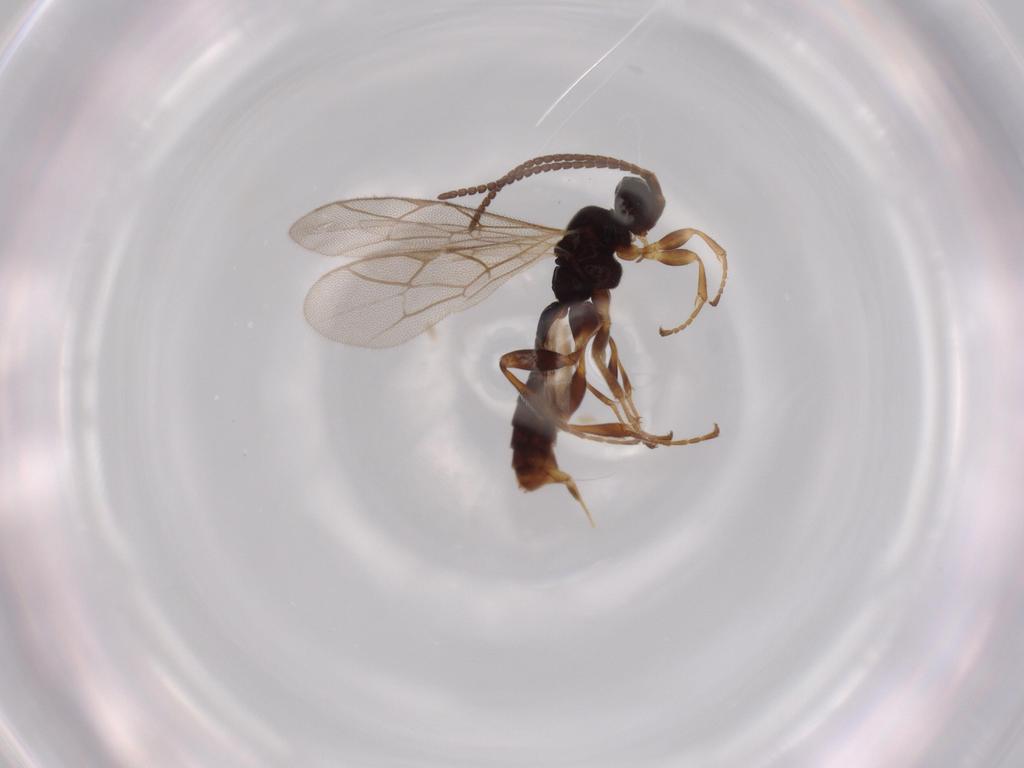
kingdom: Animalia
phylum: Arthropoda
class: Insecta
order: Hymenoptera
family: Ichneumonidae
